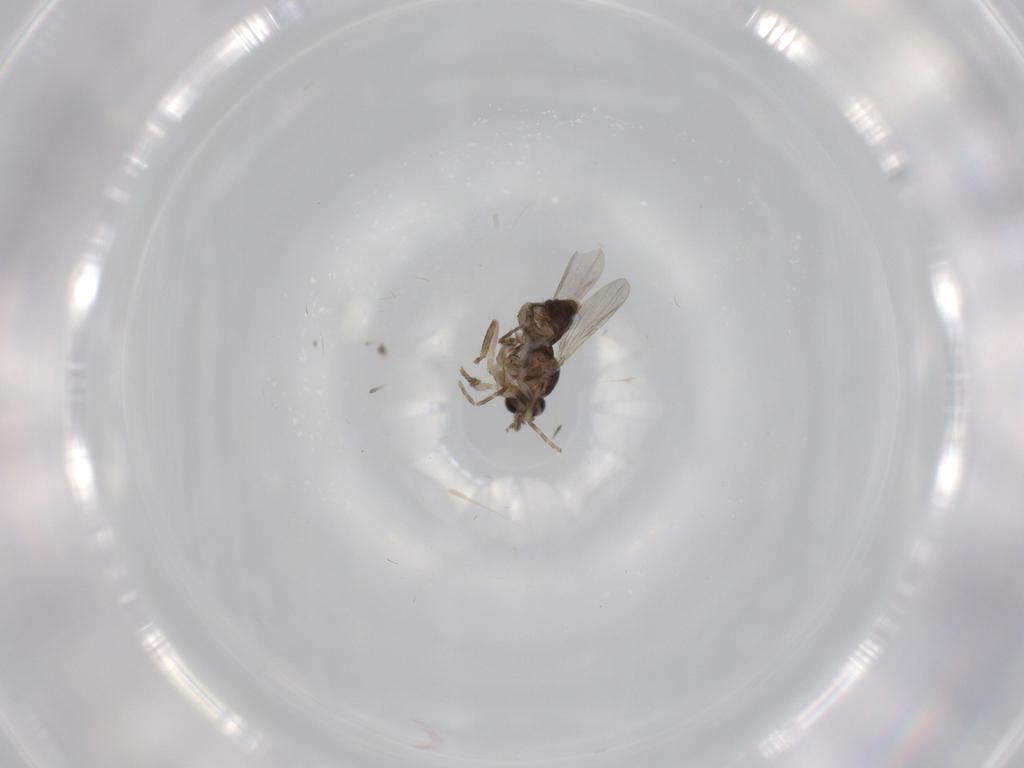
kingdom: Animalia
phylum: Arthropoda
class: Insecta
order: Diptera
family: Ceratopogonidae
